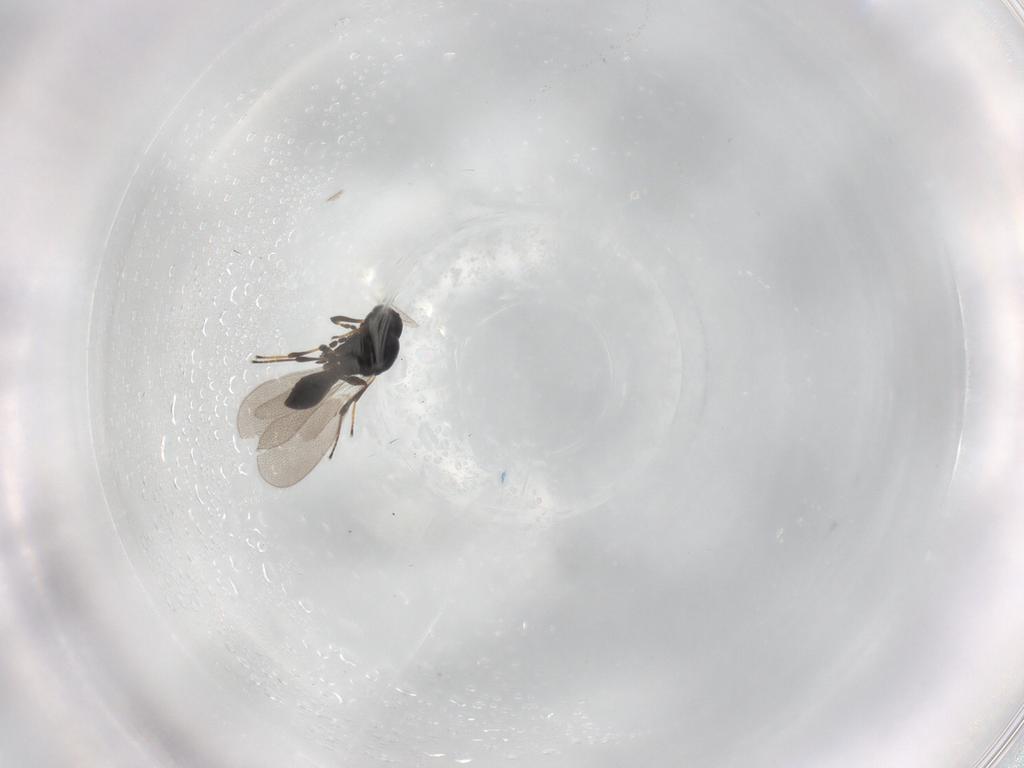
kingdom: Animalia
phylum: Arthropoda
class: Insecta
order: Hymenoptera
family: Platygastridae
